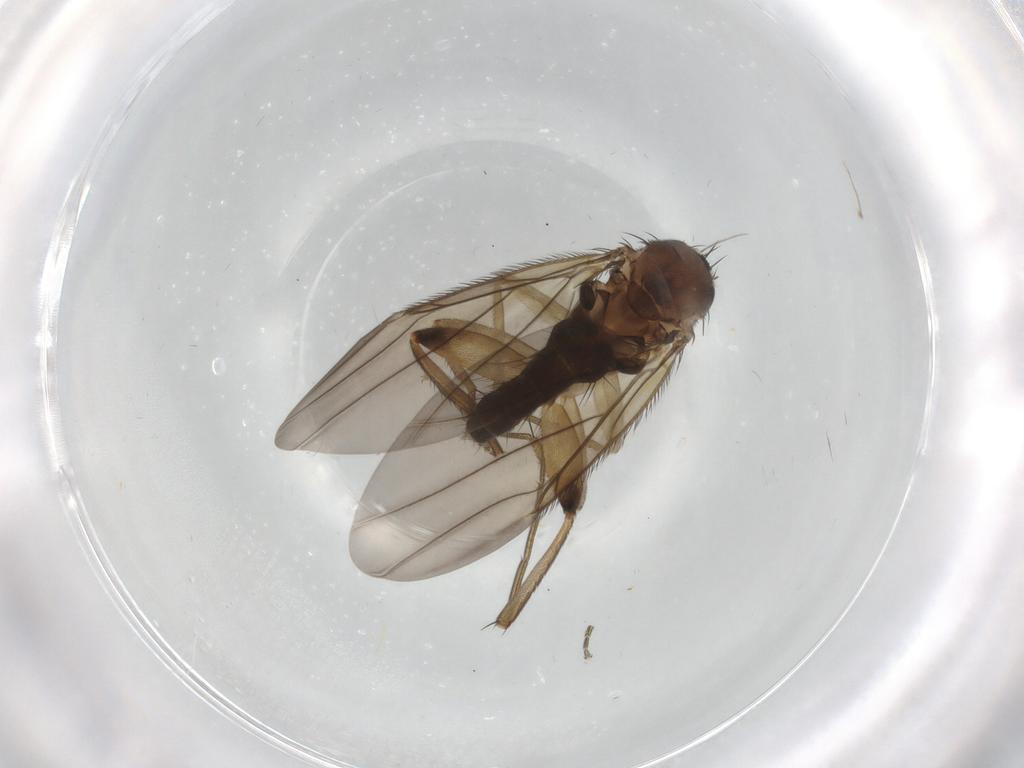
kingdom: Animalia
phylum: Arthropoda
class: Insecta
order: Diptera
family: Phoridae
